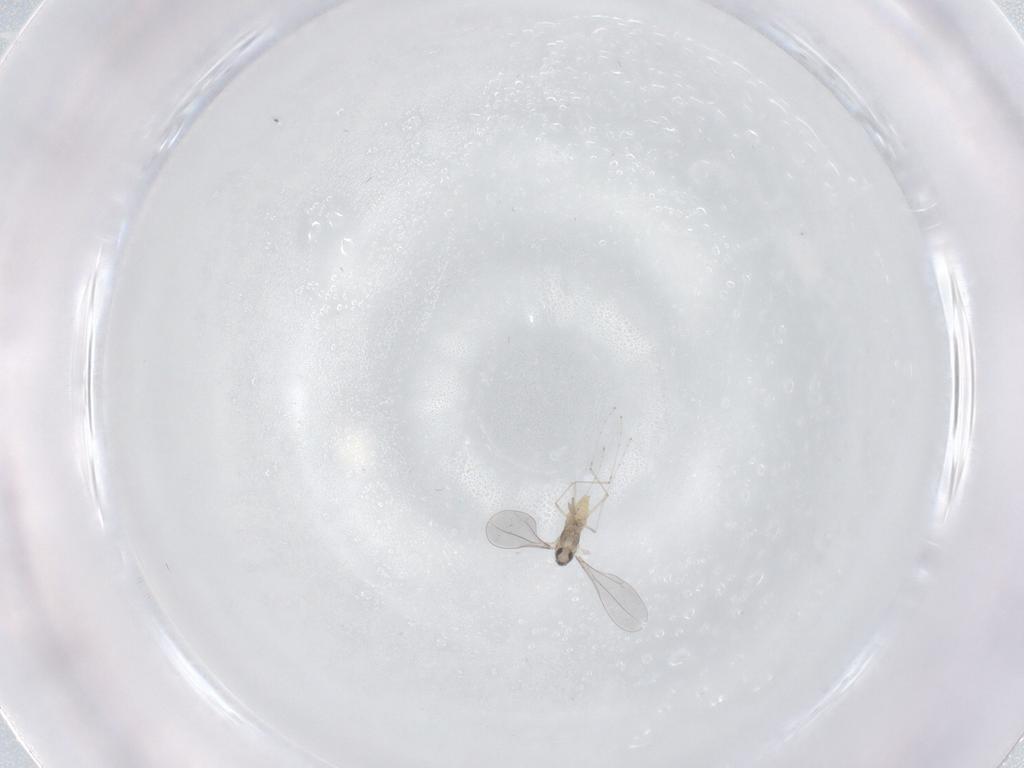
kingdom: Animalia
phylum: Arthropoda
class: Insecta
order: Diptera
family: Cecidomyiidae
